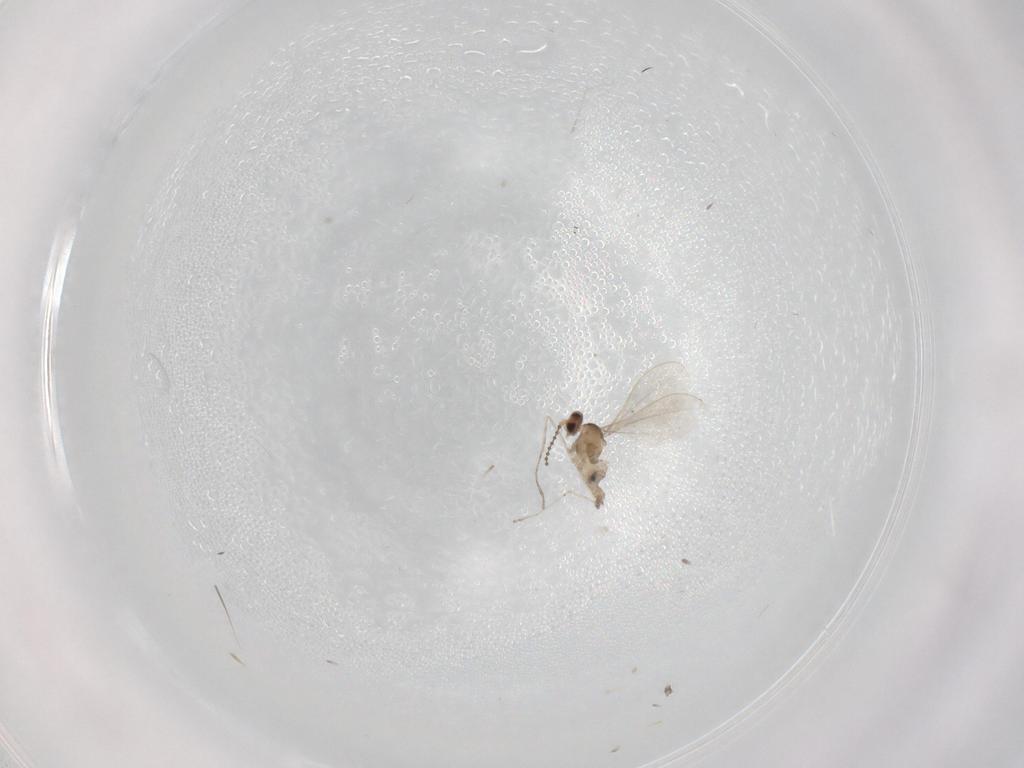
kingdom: Animalia
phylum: Arthropoda
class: Insecta
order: Diptera
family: Cecidomyiidae
